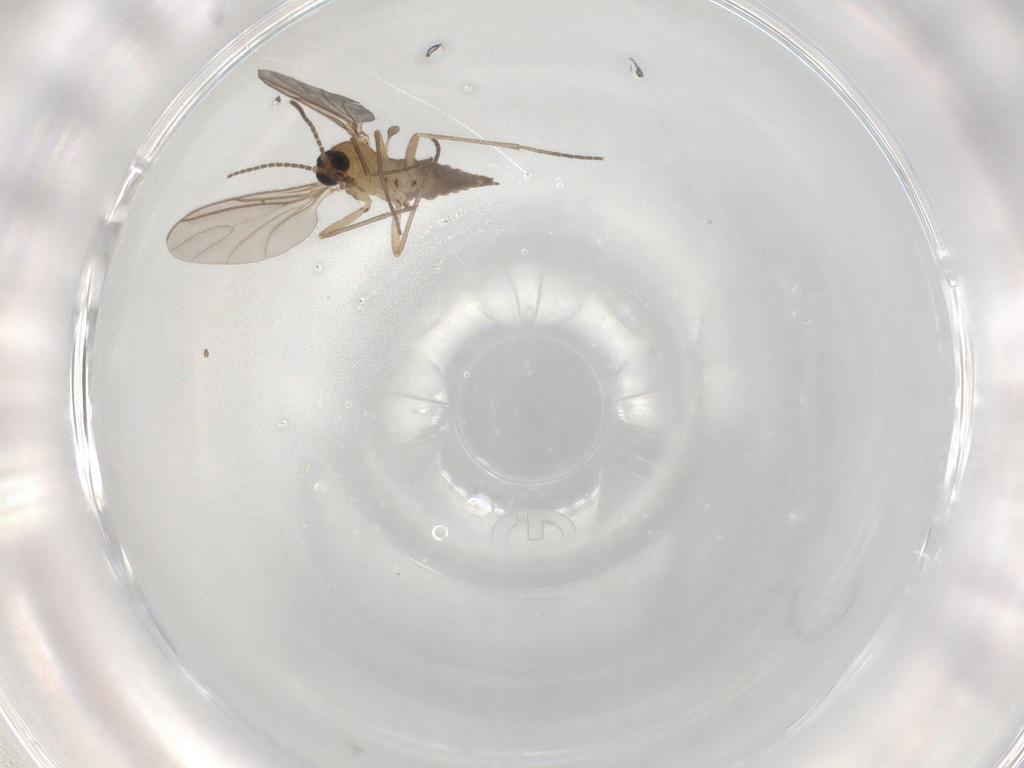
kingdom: Animalia
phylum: Arthropoda
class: Insecta
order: Diptera
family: Sciaridae
